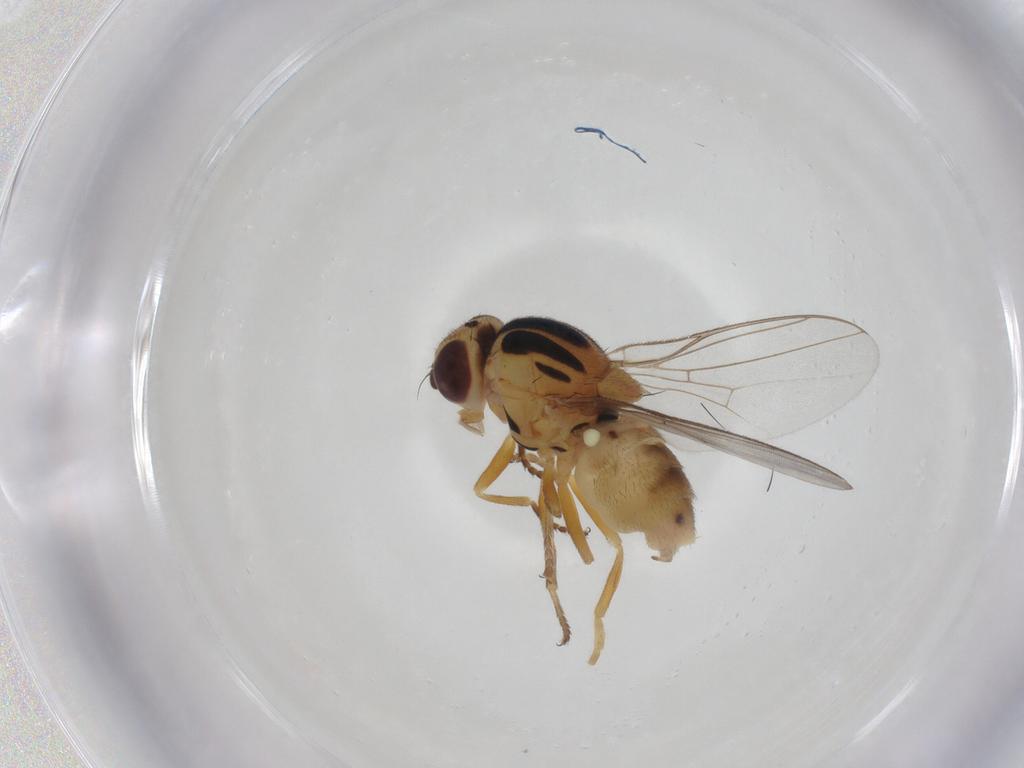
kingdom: Animalia
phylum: Arthropoda
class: Insecta
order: Diptera
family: Chloropidae
